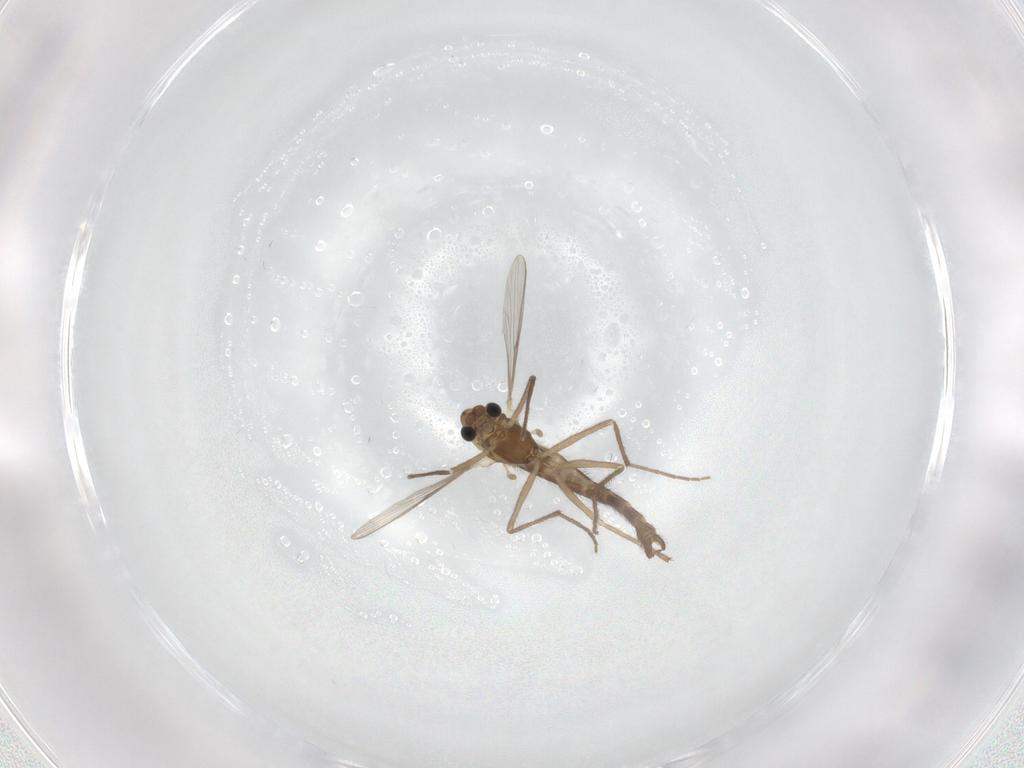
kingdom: Animalia
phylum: Arthropoda
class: Insecta
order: Diptera
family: Chironomidae
